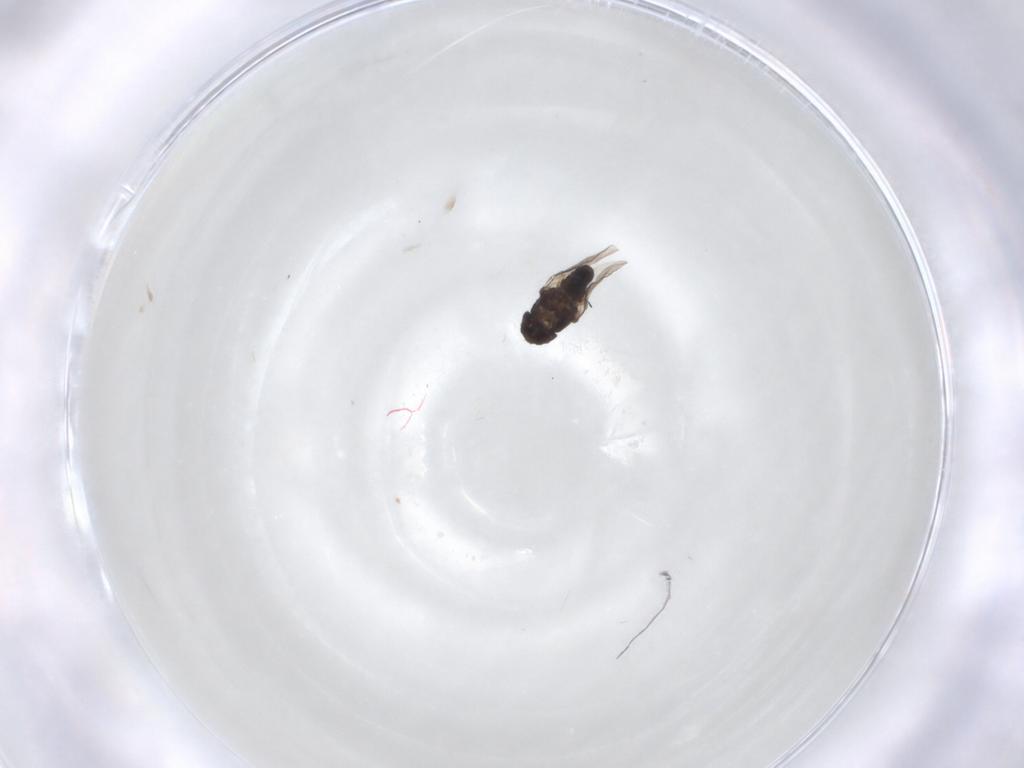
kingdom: Animalia
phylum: Arthropoda
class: Insecta
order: Diptera
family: Sphaeroceridae
